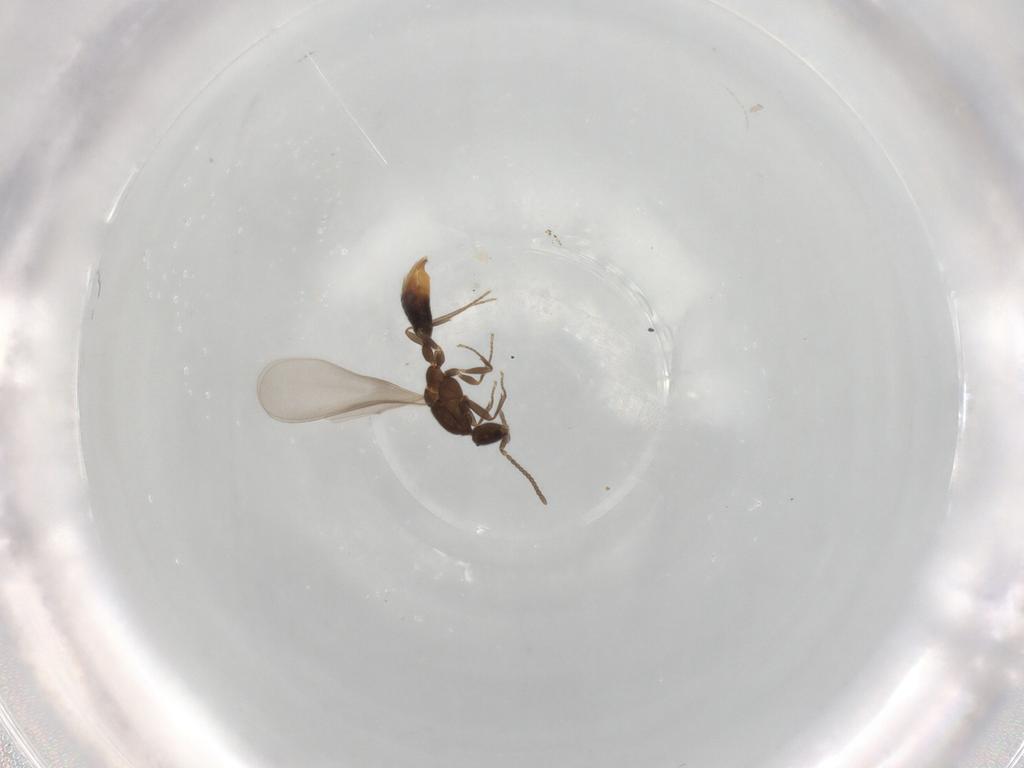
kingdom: Animalia
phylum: Arthropoda
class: Insecta
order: Hymenoptera
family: Formicidae
